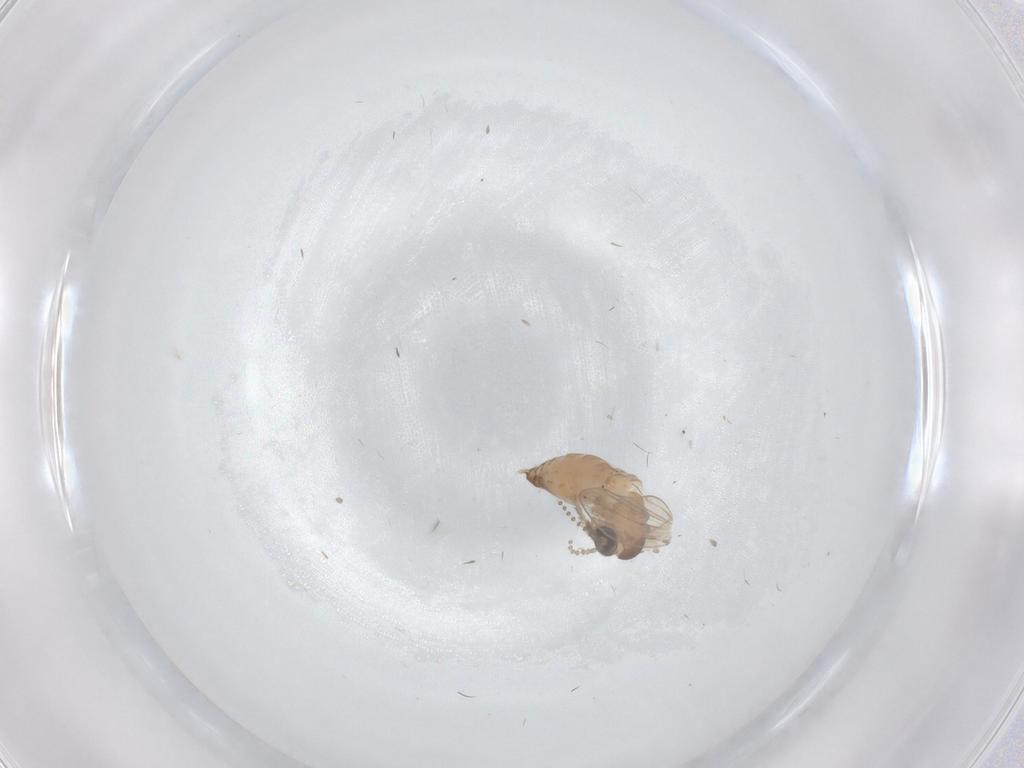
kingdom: Animalia
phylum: Arthropoda
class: Insecta
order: Diptera
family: Psychodidae
